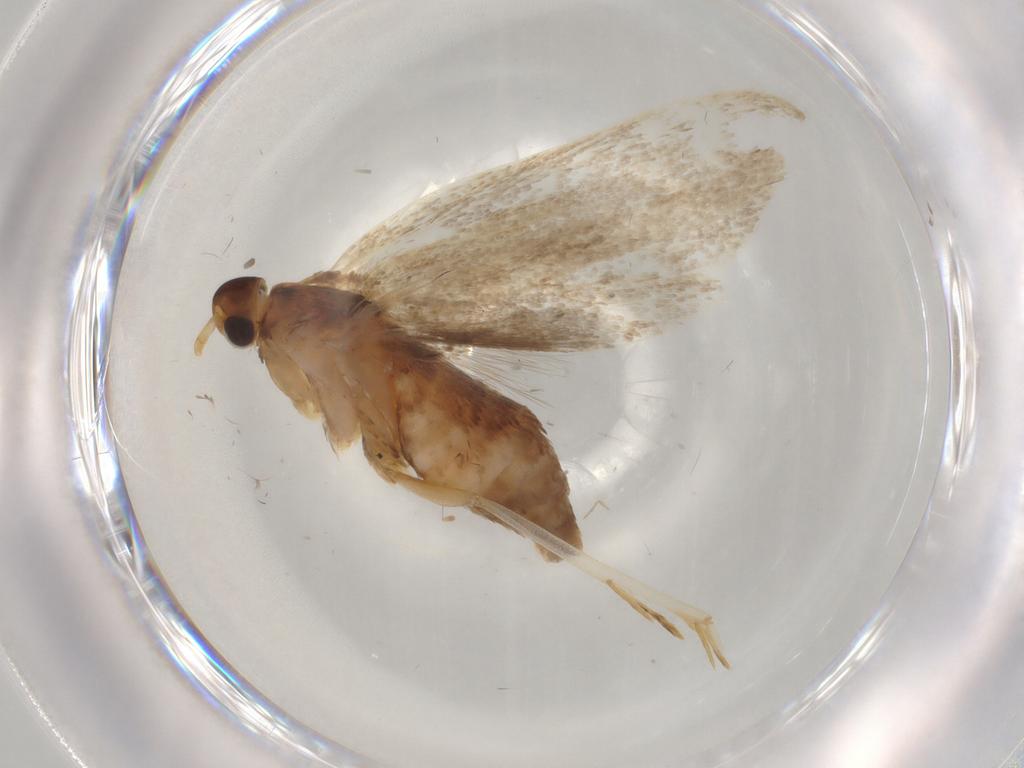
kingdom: Animalia
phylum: Arthropoda
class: Insecta
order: Lepidoptera
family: Lecithoceridae
